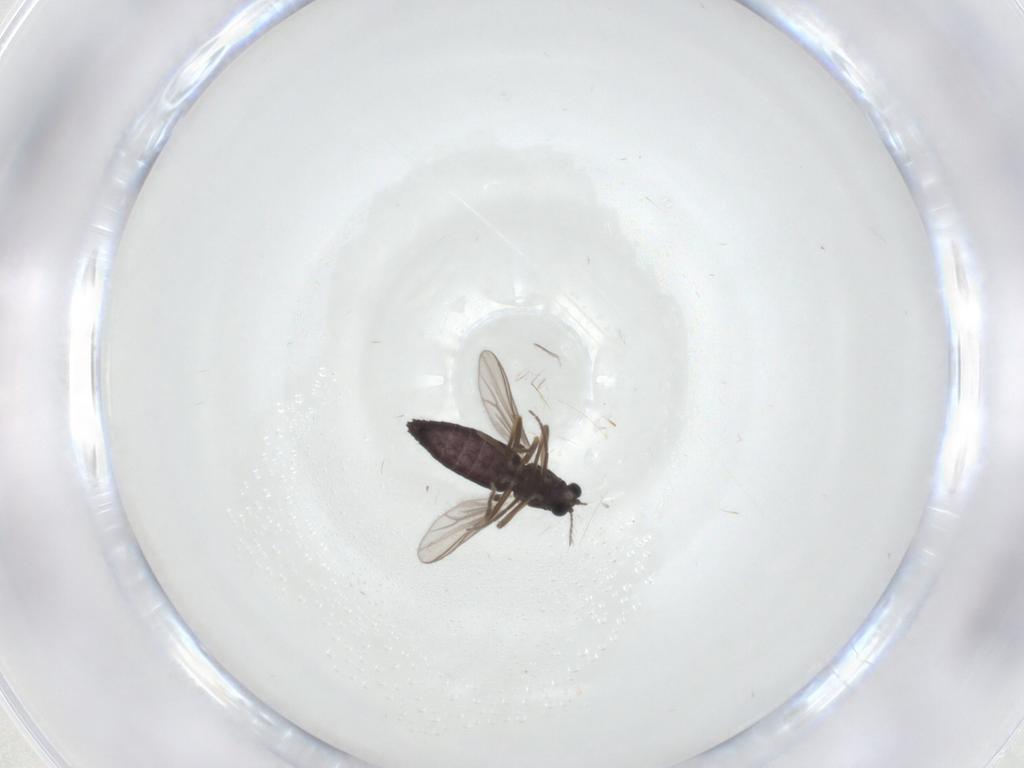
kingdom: Animalia
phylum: Arthropoda
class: Insecta
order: Diptera
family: Chironomidae
